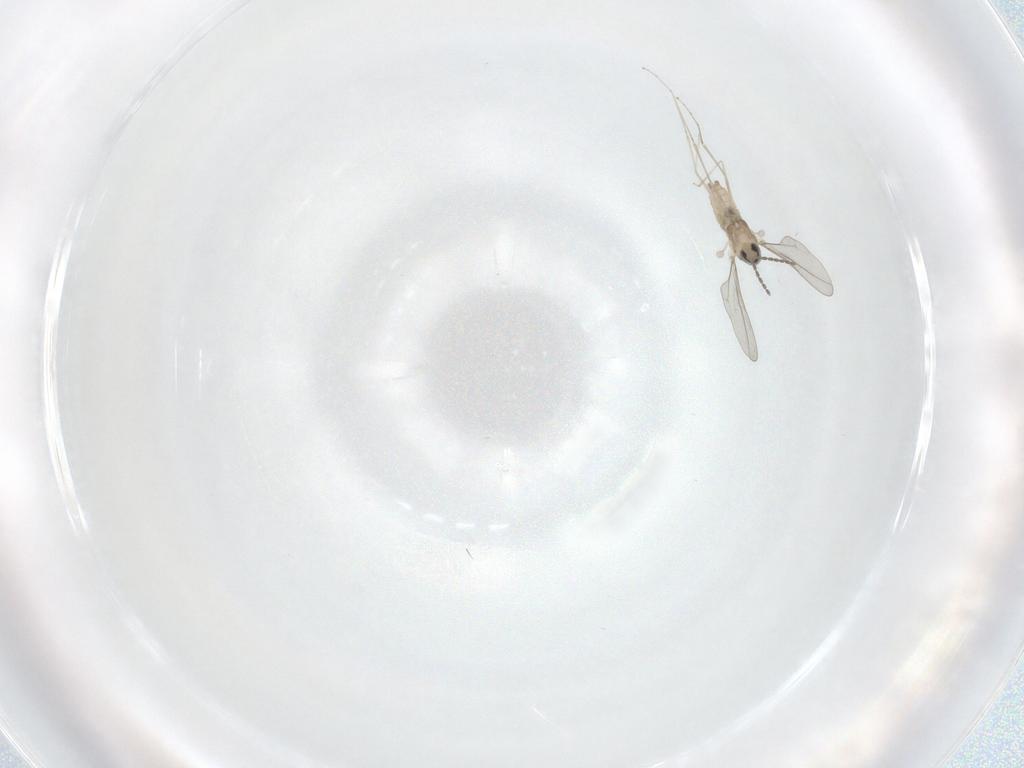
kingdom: Animalia
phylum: Arthropoda
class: Insecta
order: Diptera
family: Cecidomyiidae
